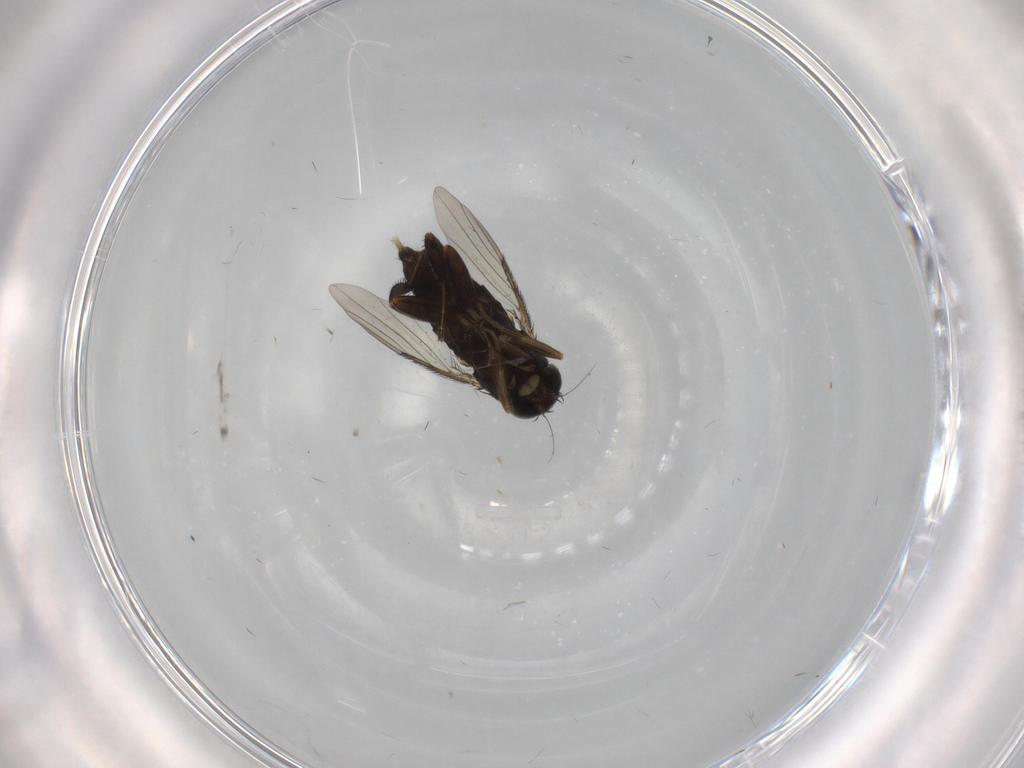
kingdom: Animalia
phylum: Arthropoda
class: Insecta
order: Diptera
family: Phoridae
